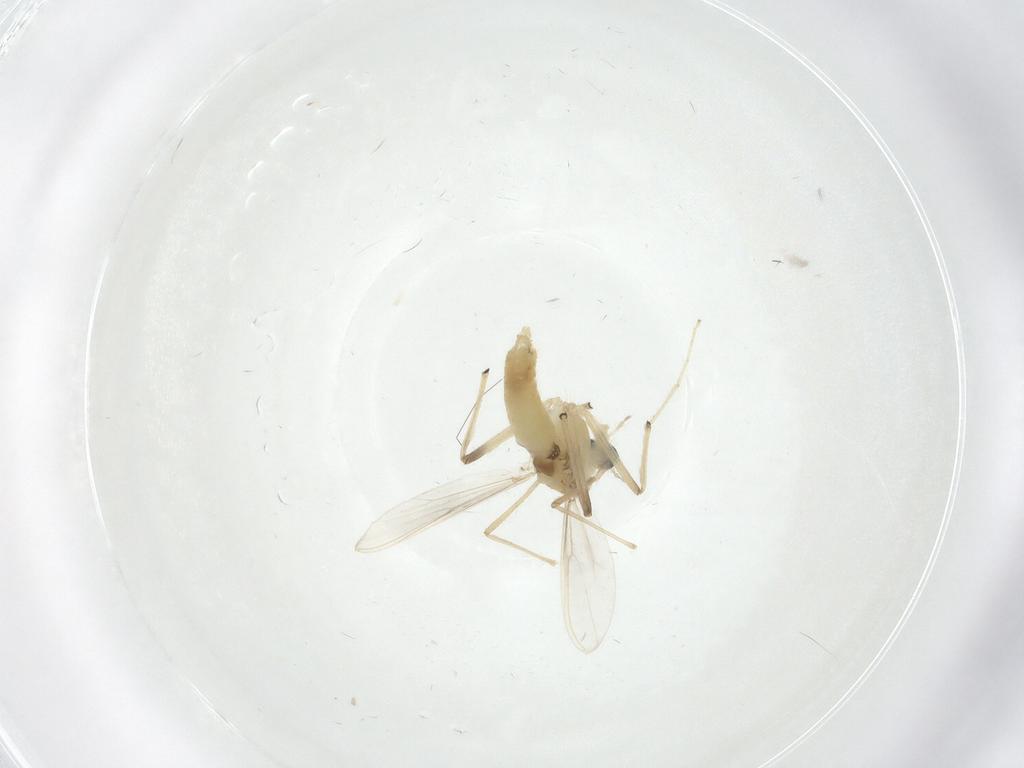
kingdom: Animalia
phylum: Arthropoda
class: Insecta
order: Diptera
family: Chironomidae
